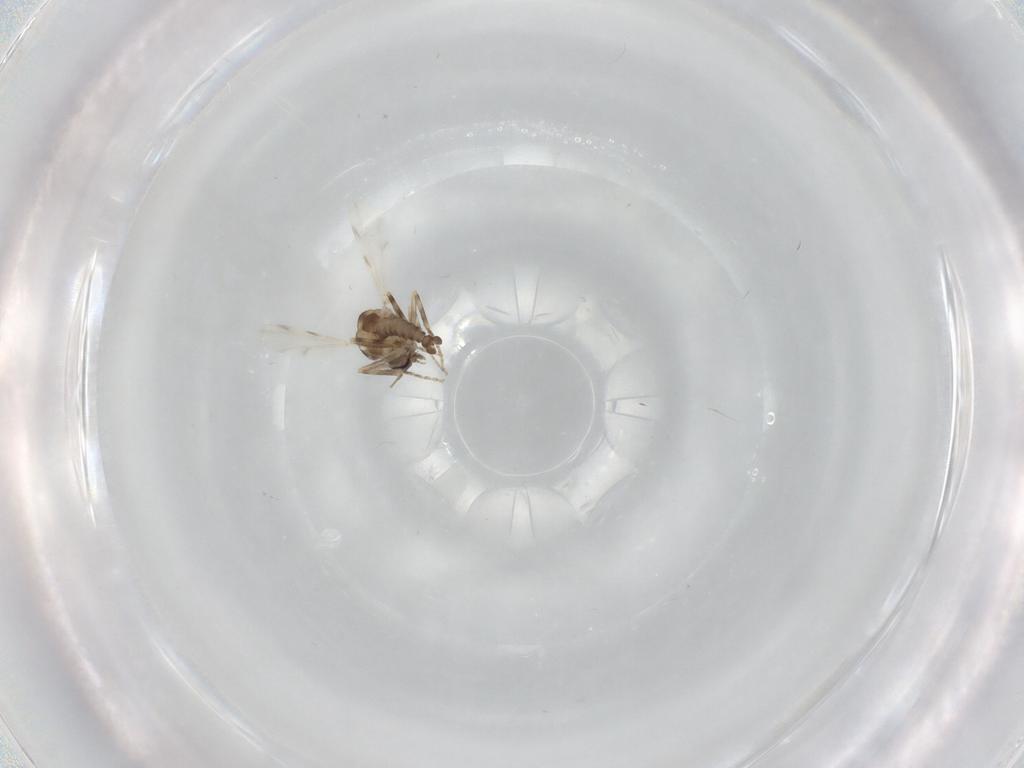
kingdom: Animalia
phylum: Arthropoda
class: Insecta
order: Diptera
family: Ceratopogonidae
